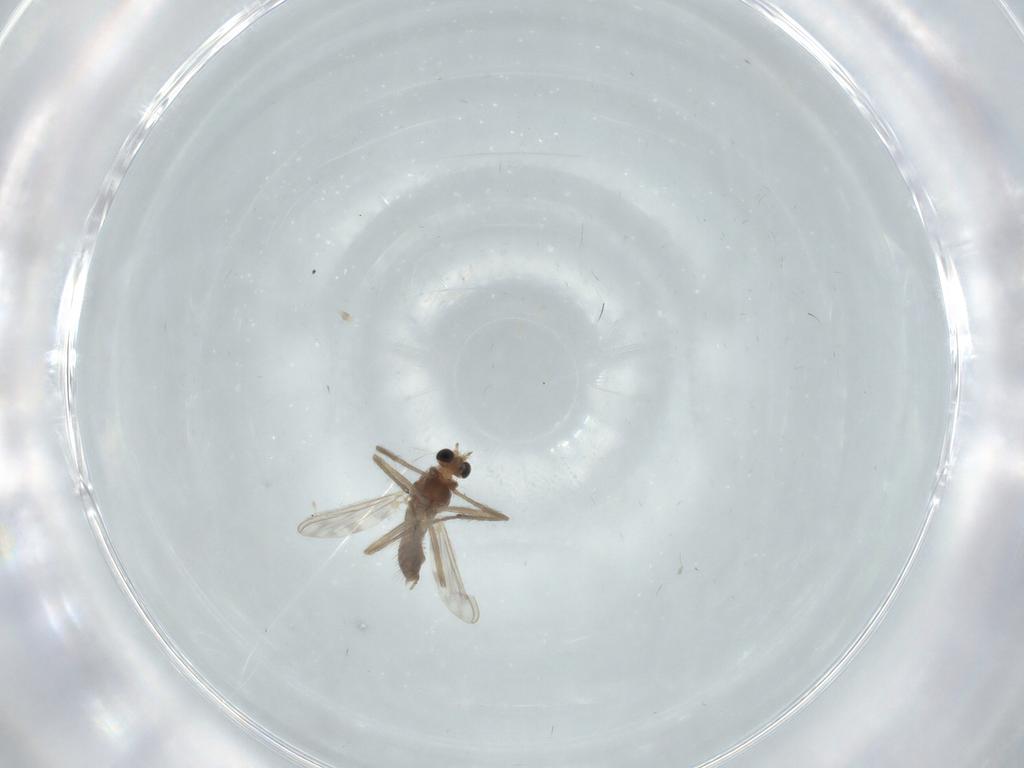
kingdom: Animalia
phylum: Arthropoda
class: Insecta
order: Diptera
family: Chironomidae
